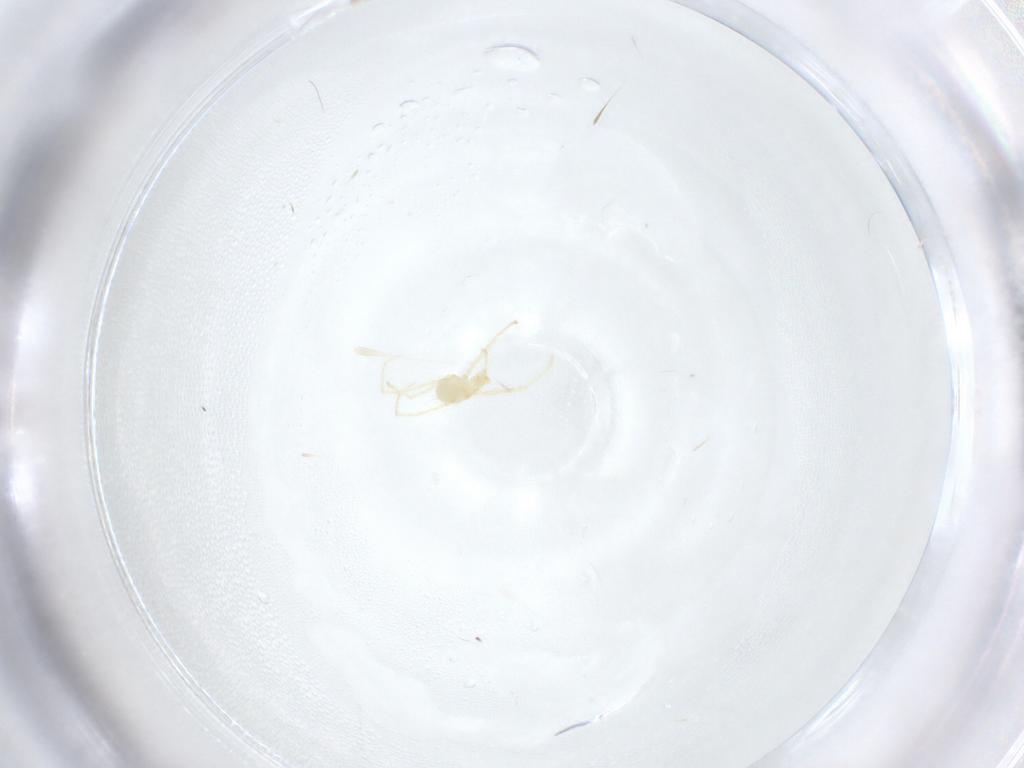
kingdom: Animalia
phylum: Arthropoda
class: Arachnida
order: Trombidiformes
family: Erythraeidae
